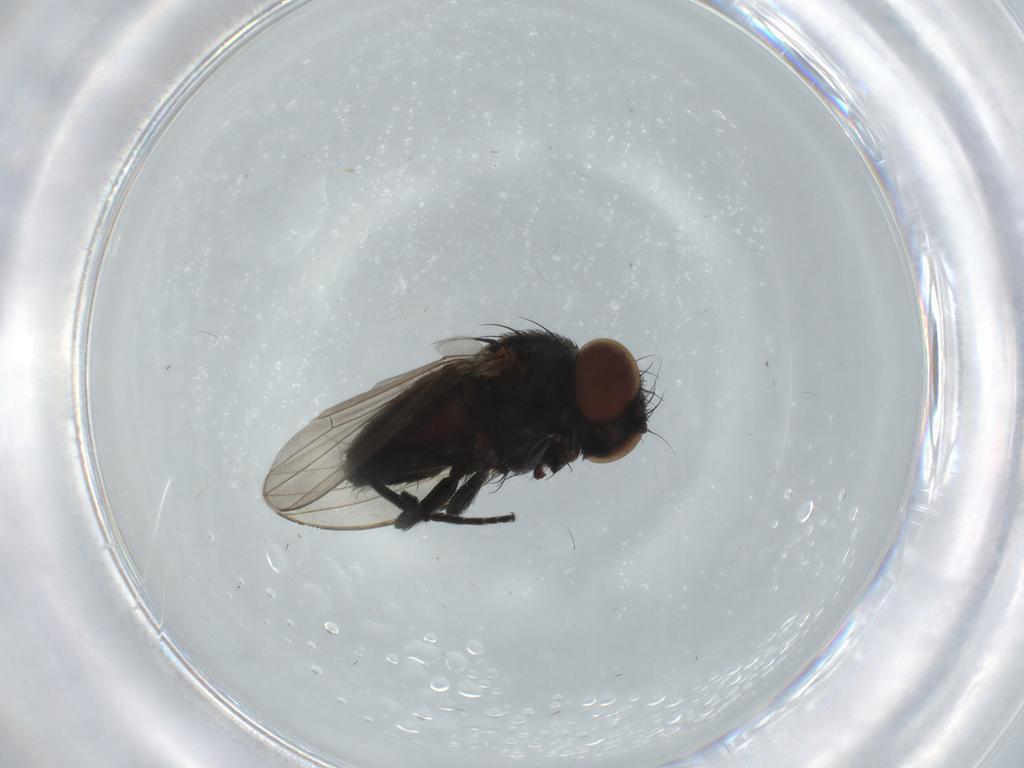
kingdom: Animalia
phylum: Arthropoda
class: Insecta
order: Diptera
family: Milichiidae
